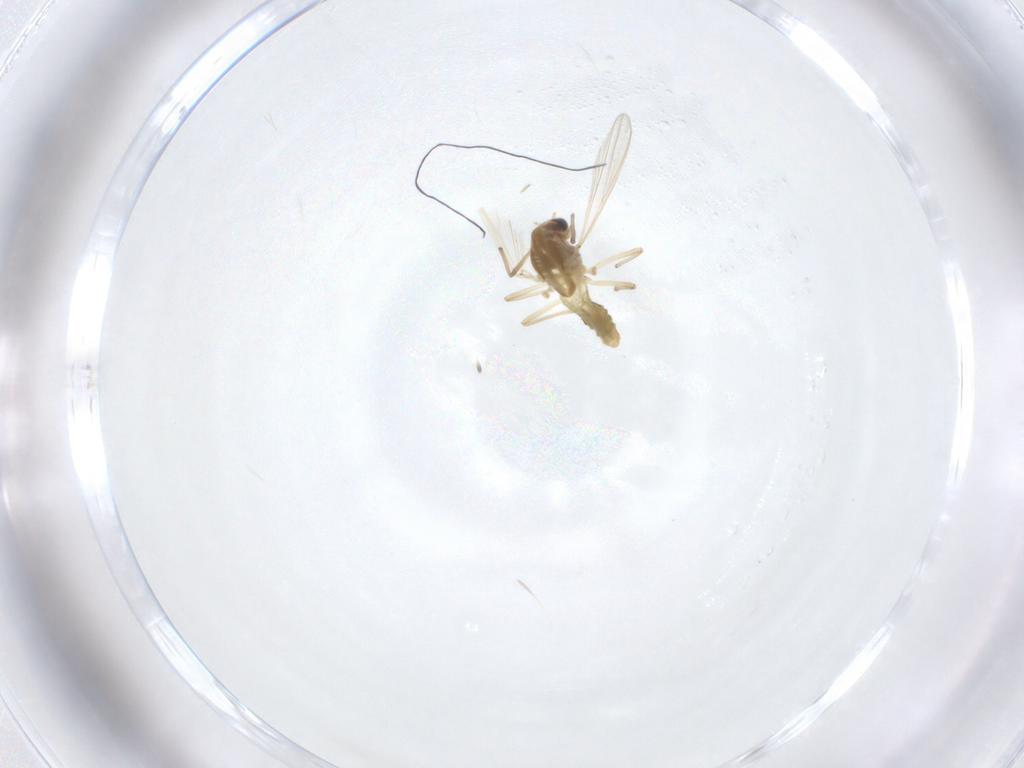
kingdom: Animalia
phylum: Arthropoda
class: Insecta
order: Diptera
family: Chironomidae
